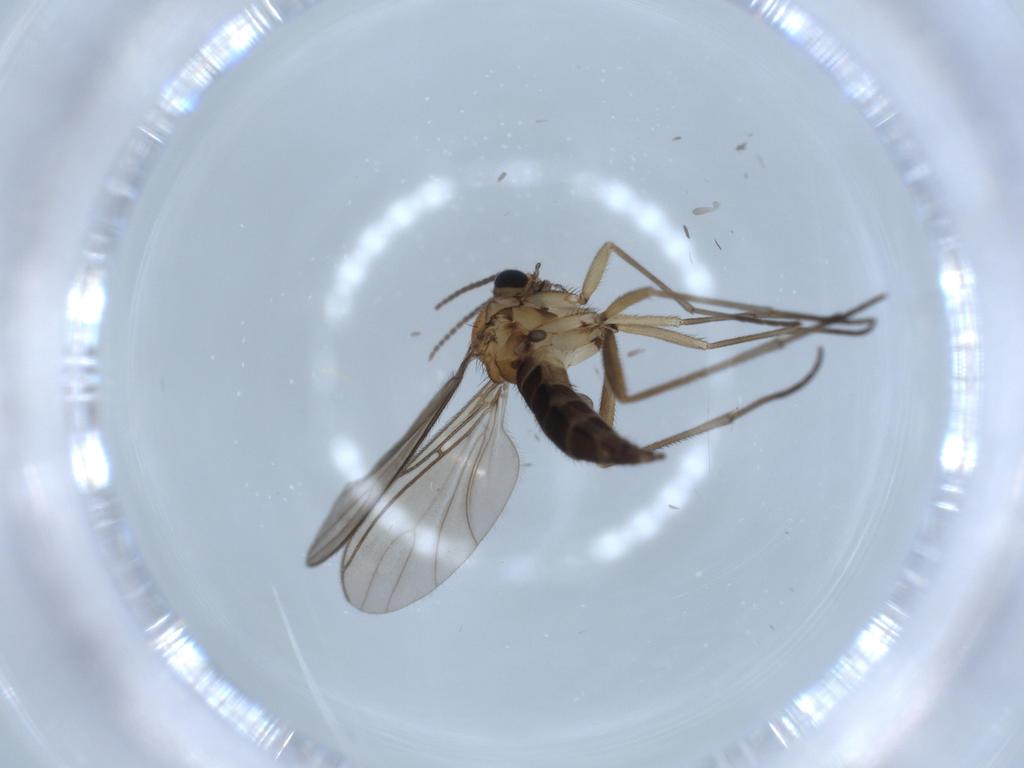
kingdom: Animalia
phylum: Arthropoda
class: Insecta
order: Diptera
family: Sciaridae
